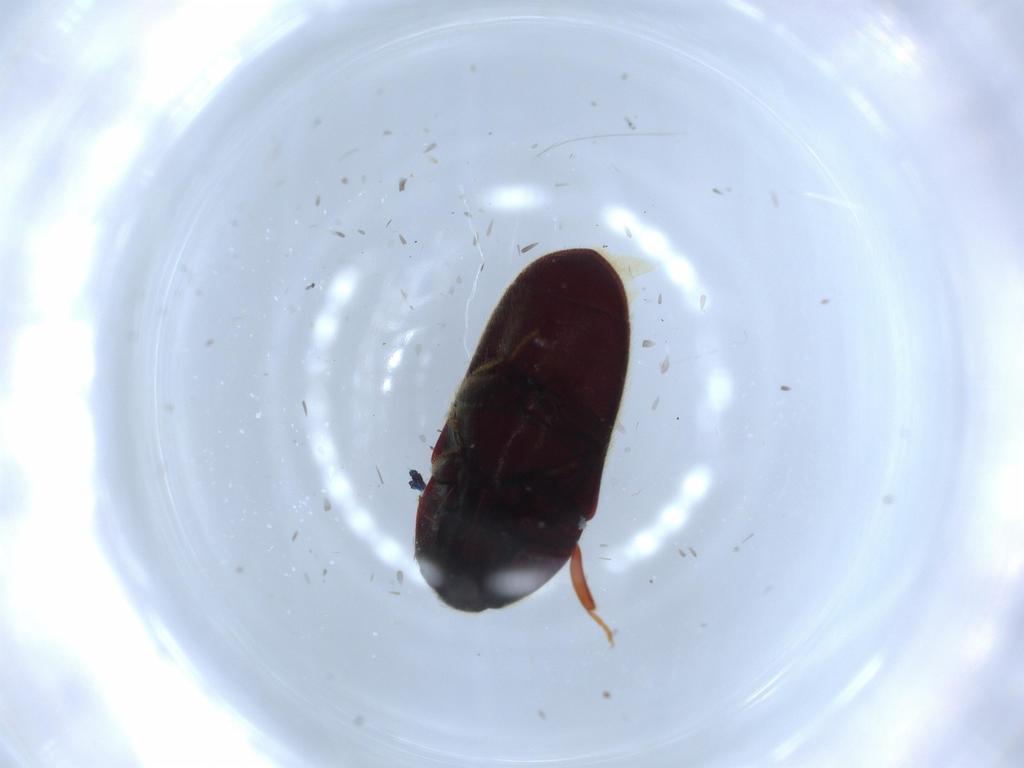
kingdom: Animalia
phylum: Arthropoda
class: Insecta
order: Coleoptera
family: Throscidae
